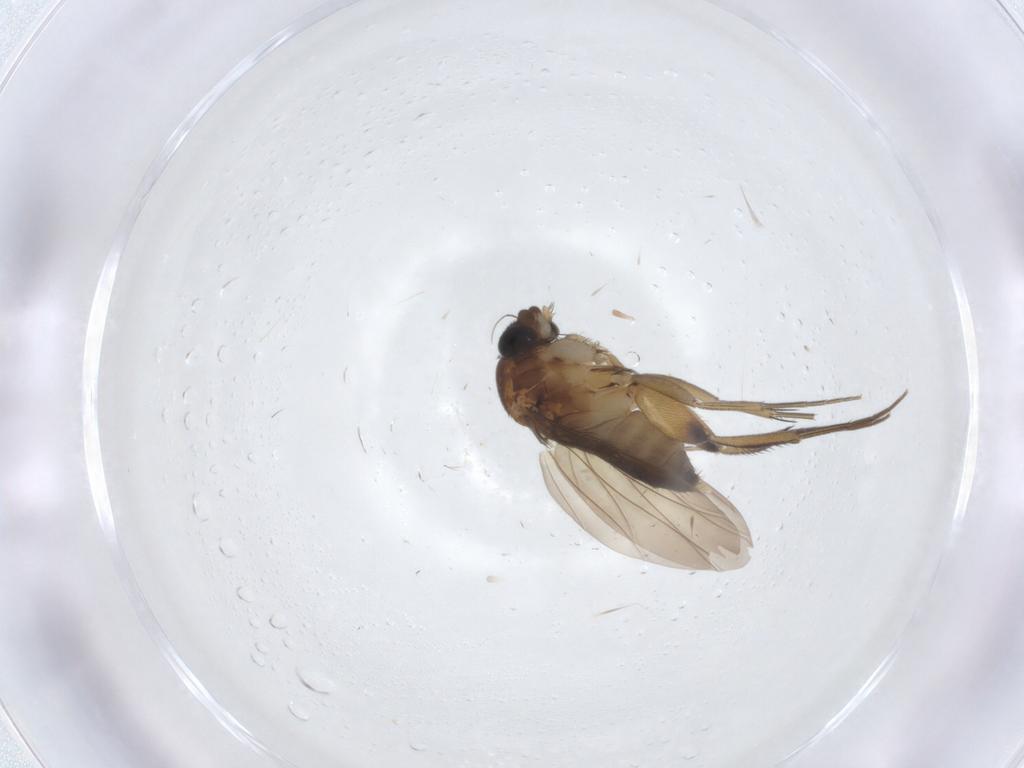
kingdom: Animalia
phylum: Arthropoda
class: Insecta
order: Diptera
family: Phoridae
